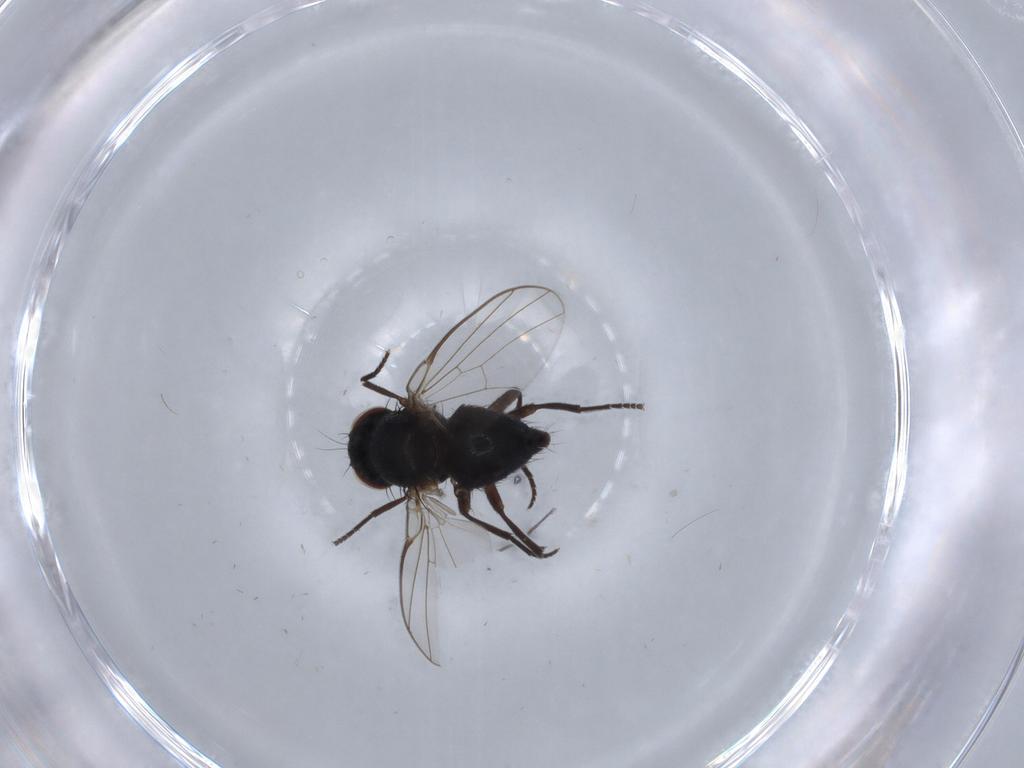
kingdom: Animalia
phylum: Arthropoda
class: Insecta
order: Diptera
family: Agromyzidae
